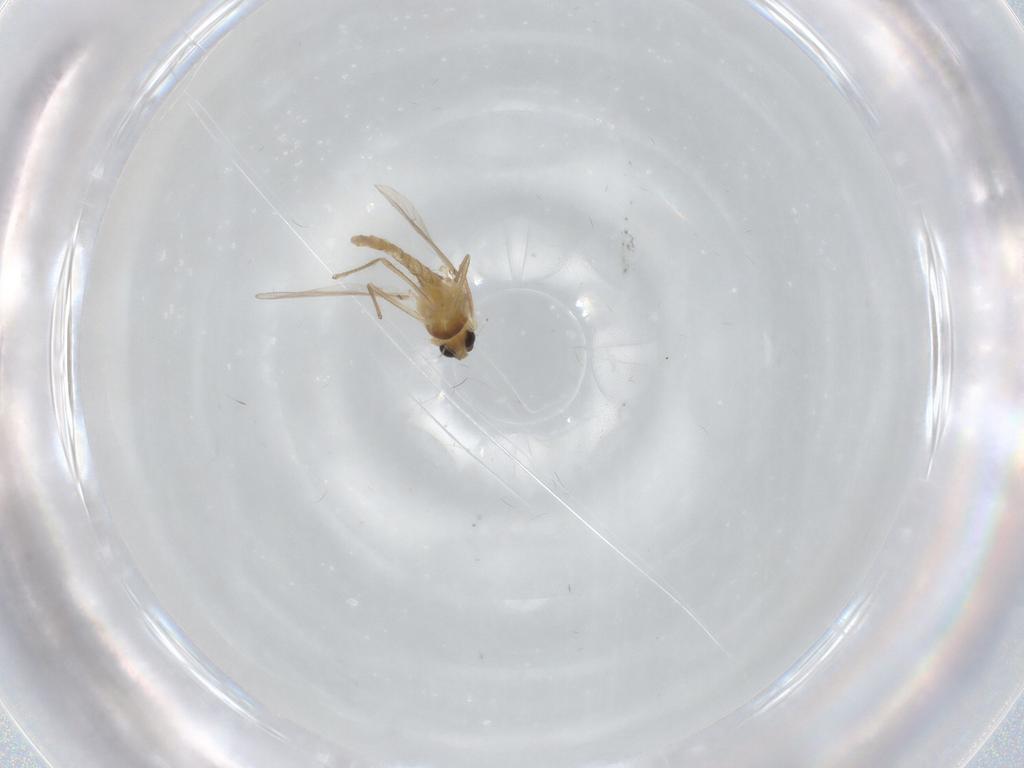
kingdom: Animalia
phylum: Arthropoda
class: Insecta
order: Diptera
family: Chironomidae
